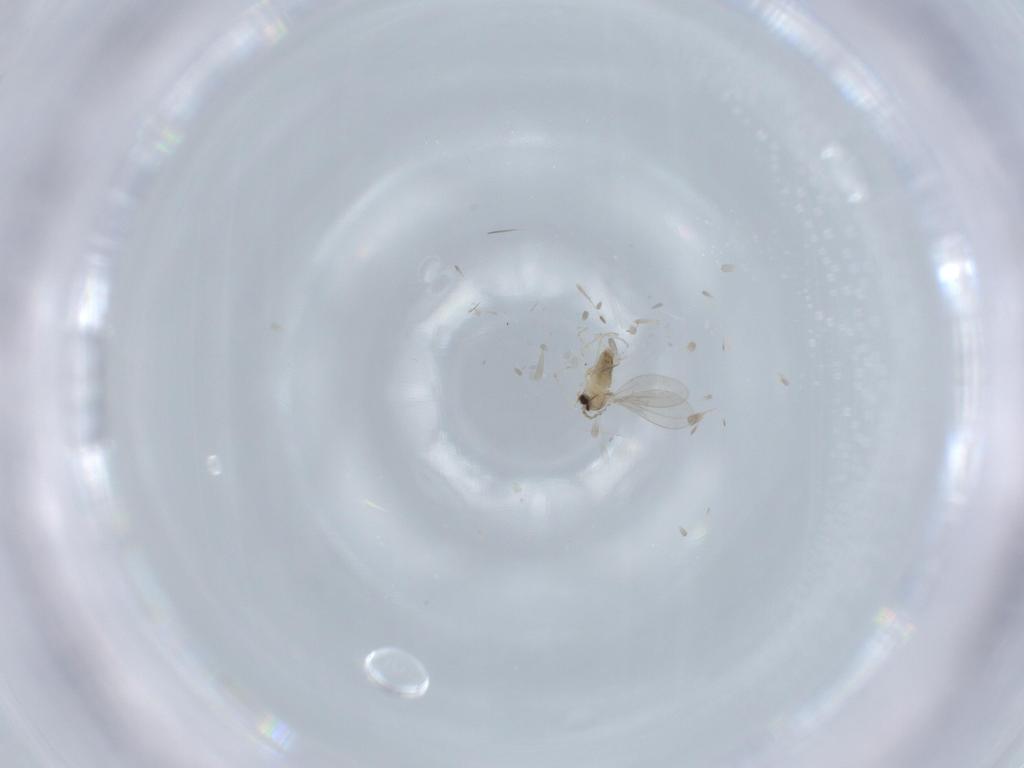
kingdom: Animalia
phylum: Arthropoda
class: Insecta
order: Diptera
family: Cecidomyiidae
